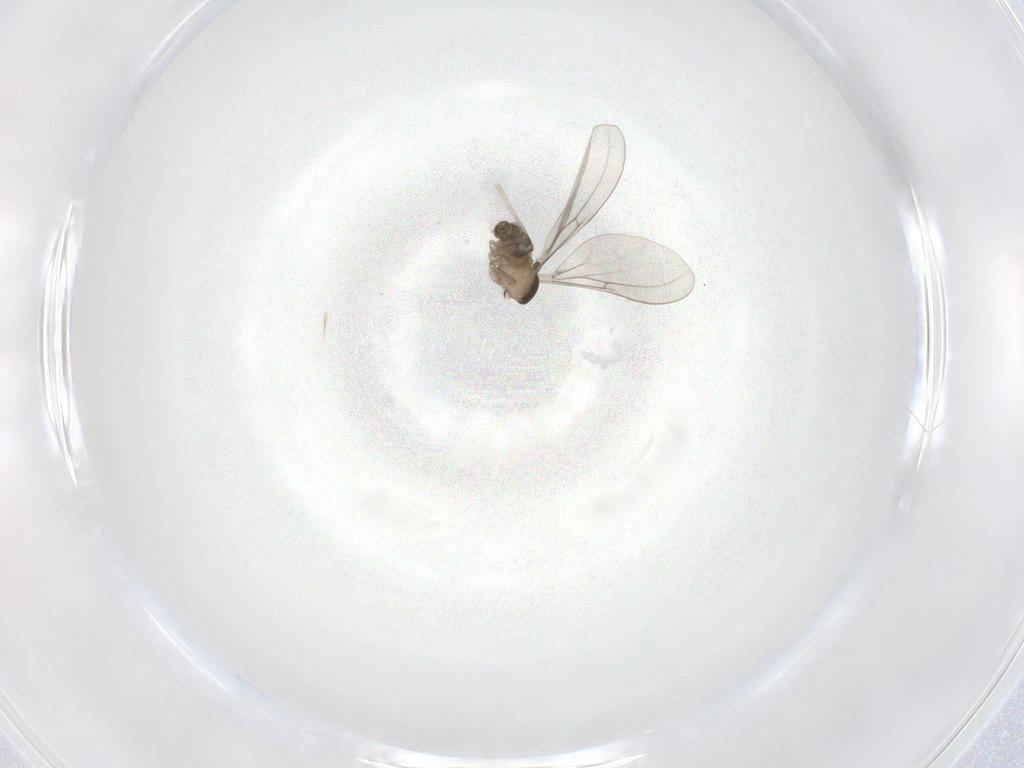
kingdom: Animalia
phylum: Arthropoda
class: Insecta
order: Diptera
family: Cecidomyiidae
